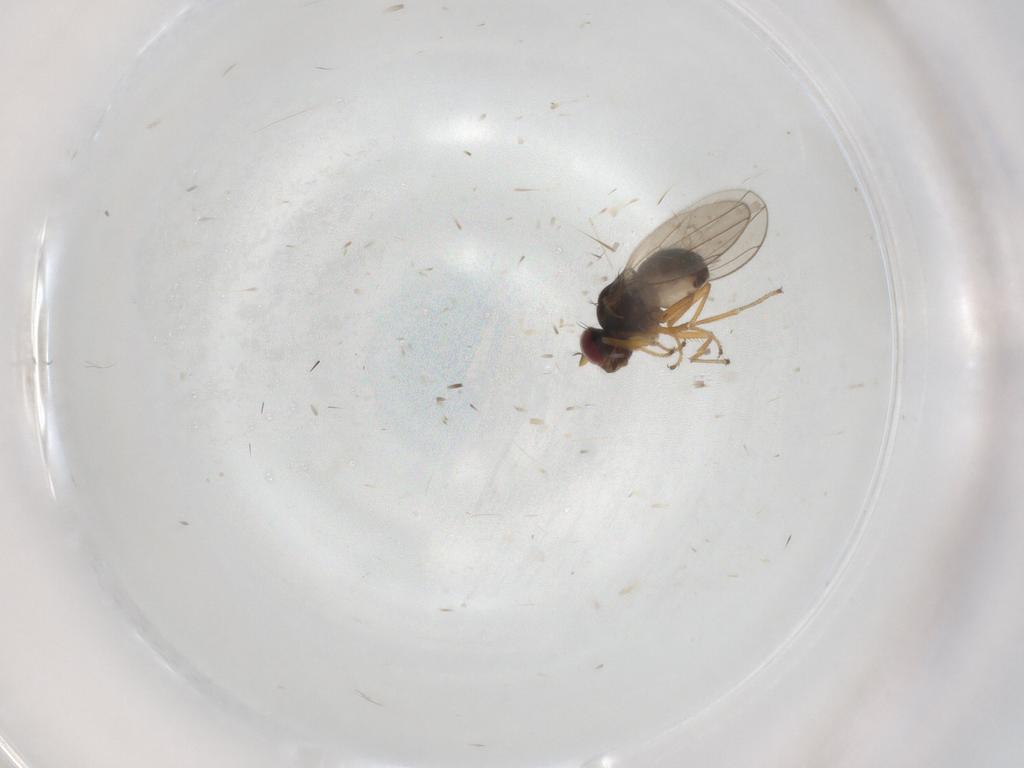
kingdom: Animalia
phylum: Arthropoda
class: Insecta
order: Diptera
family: Ephydridae
